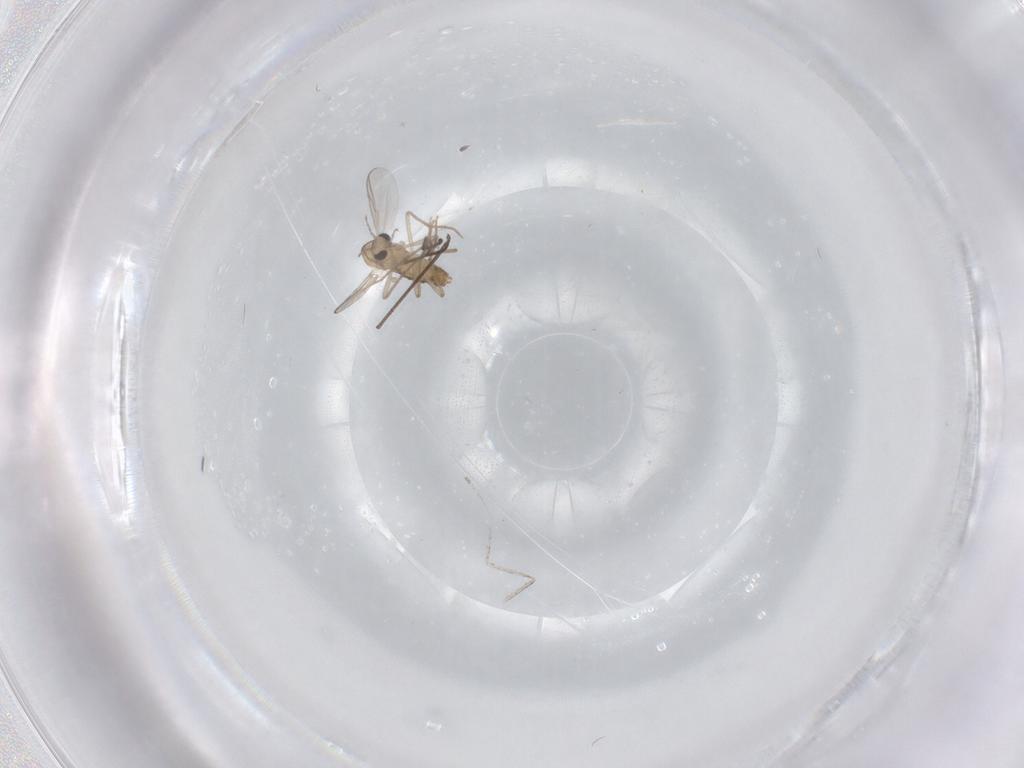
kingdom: Animalia
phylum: Arthropoda
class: Insecta
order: Diptera
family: Chironomidae
